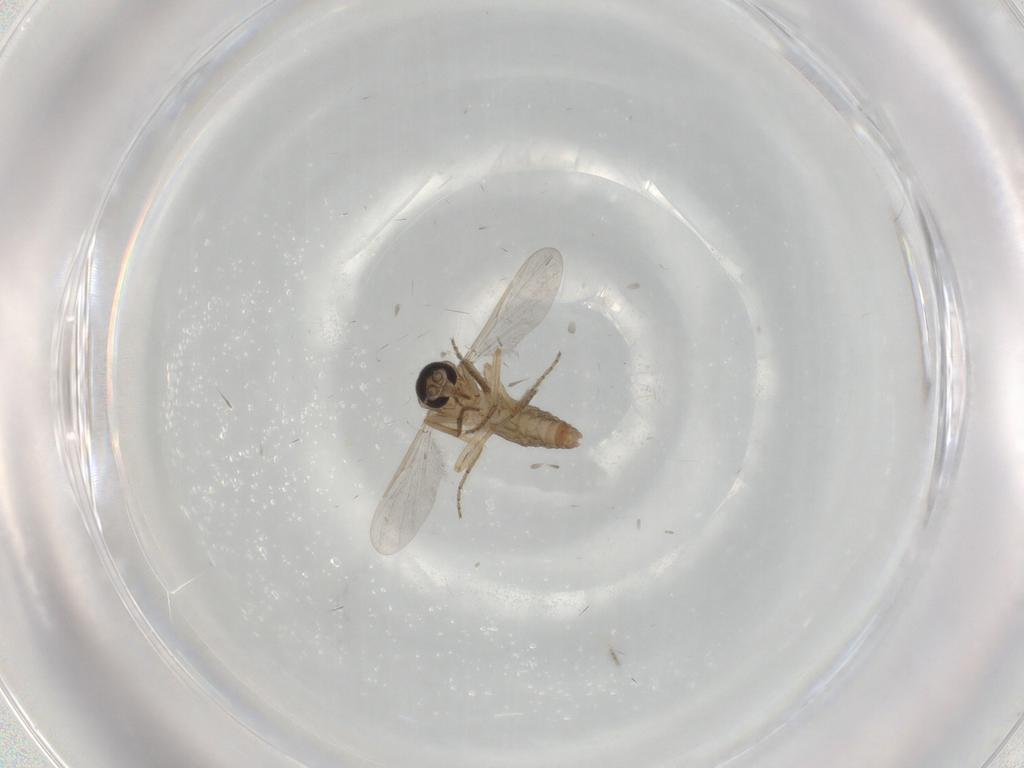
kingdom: Animalia
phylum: Arthropoda
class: Insecta
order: Diptera
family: Ceratopogonidae
